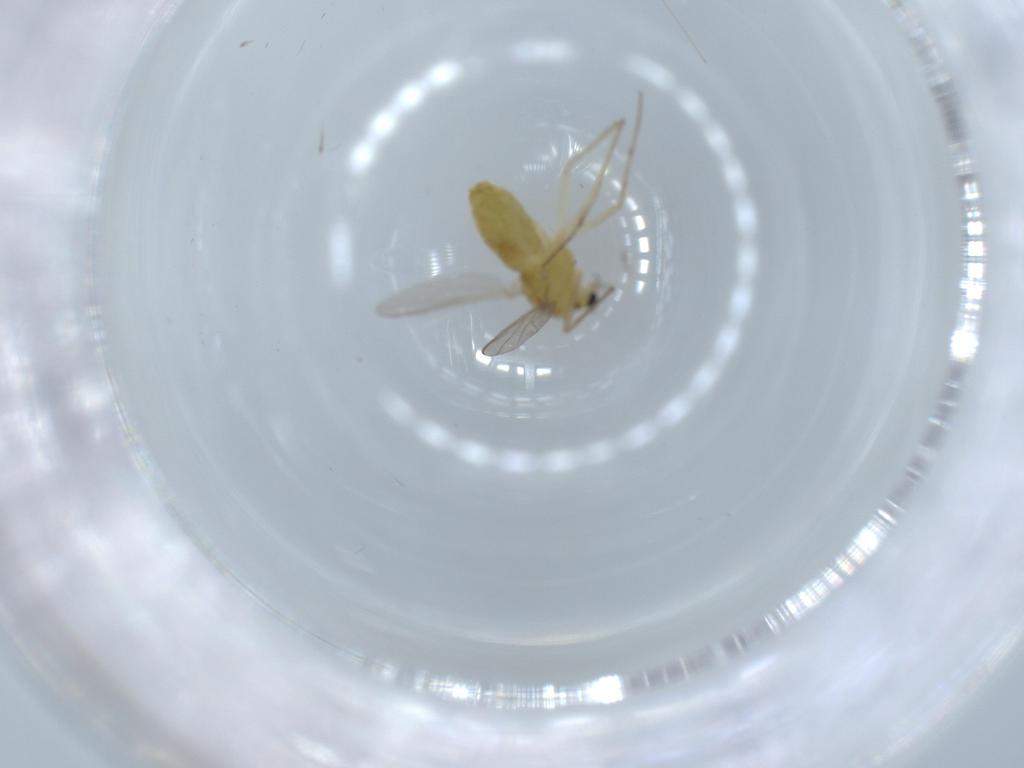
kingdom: Animalia
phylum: Arthropoda
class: Insecta
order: Diptera
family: Chironomidae
